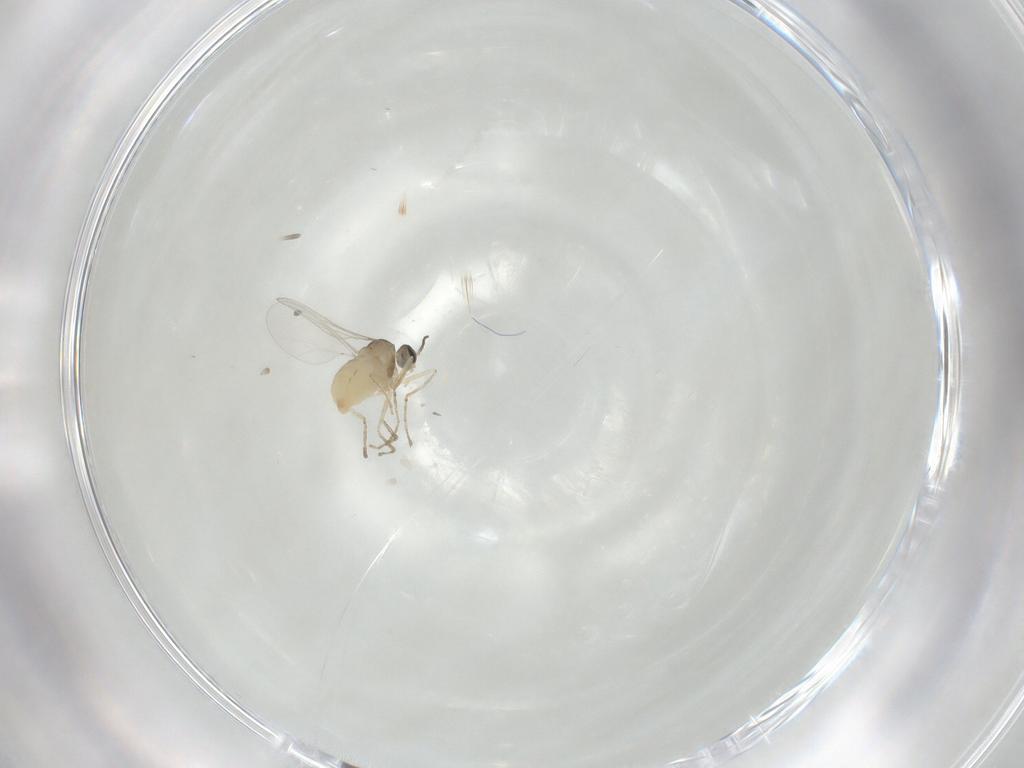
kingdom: Animalia
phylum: Arthropoda
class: Insecta
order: Diptera
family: Cecidomyiidae
